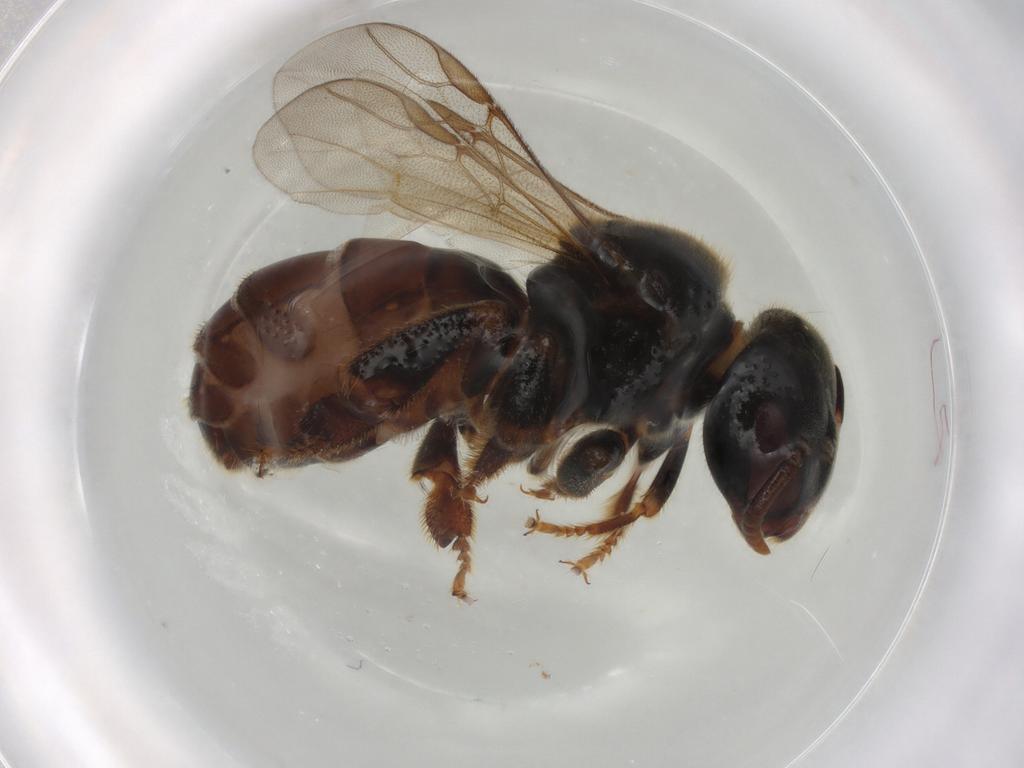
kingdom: Animalia
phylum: Arthropoda
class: Insecta
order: Hymenoptera
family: Apidae
